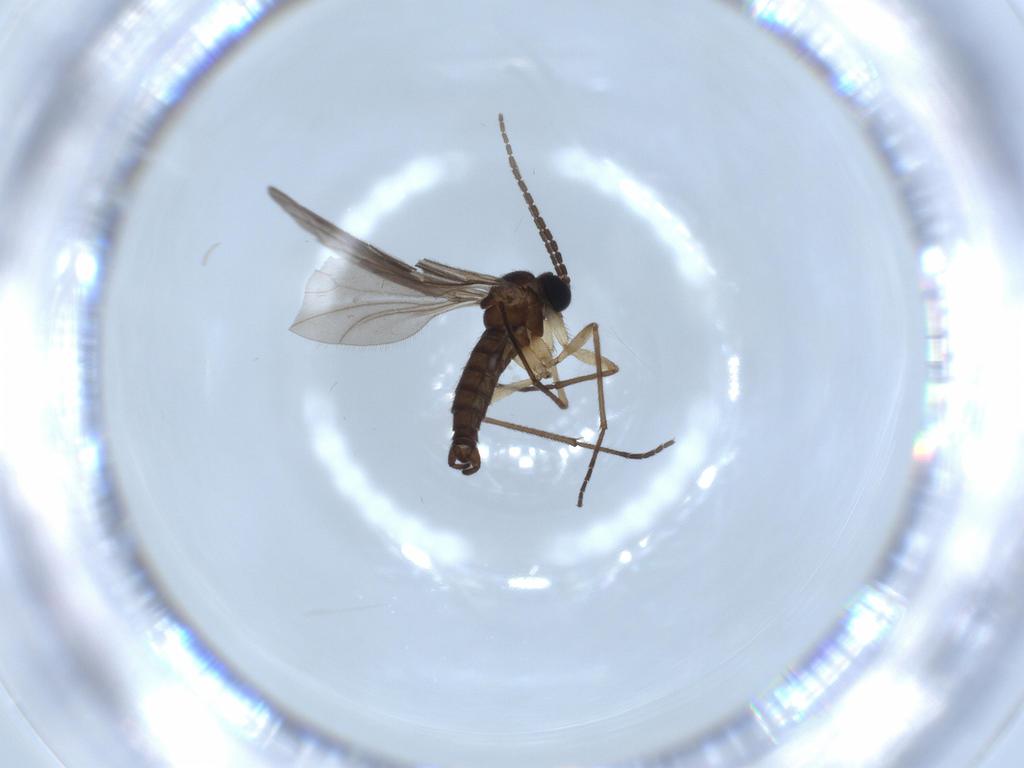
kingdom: Animalia
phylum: Arthropoda
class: Insecta
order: Diptera
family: Sciaridae
